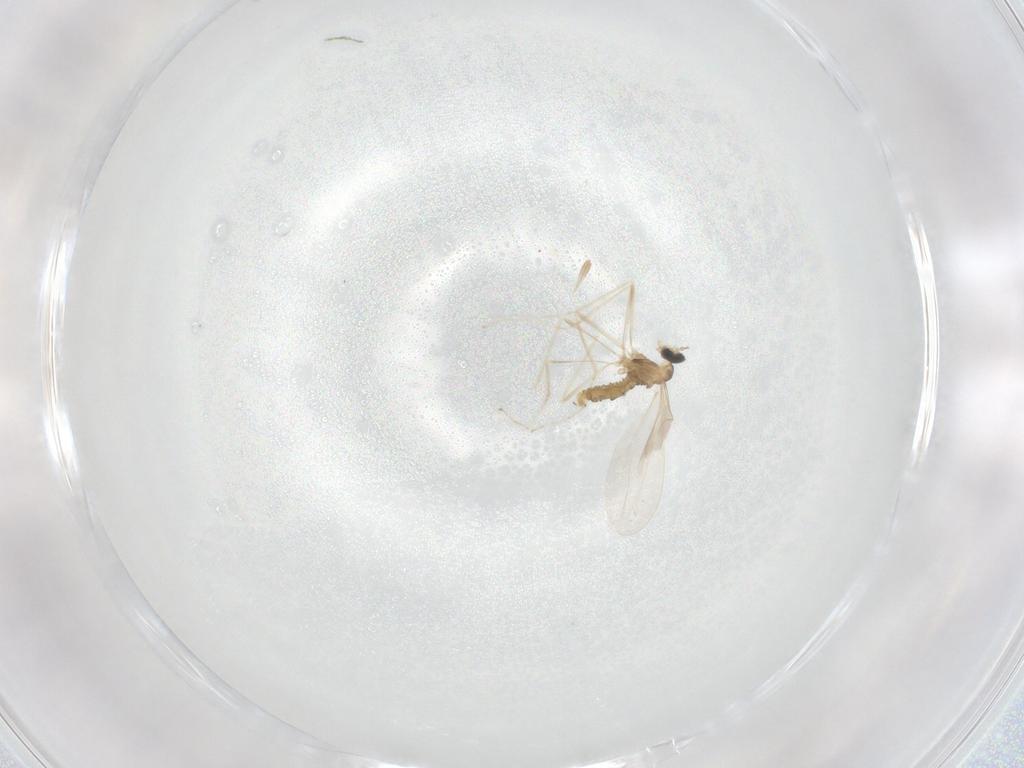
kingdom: Animalia
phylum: Arthropoda
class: Insecta
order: Diptera
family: Cecidomyiidae
